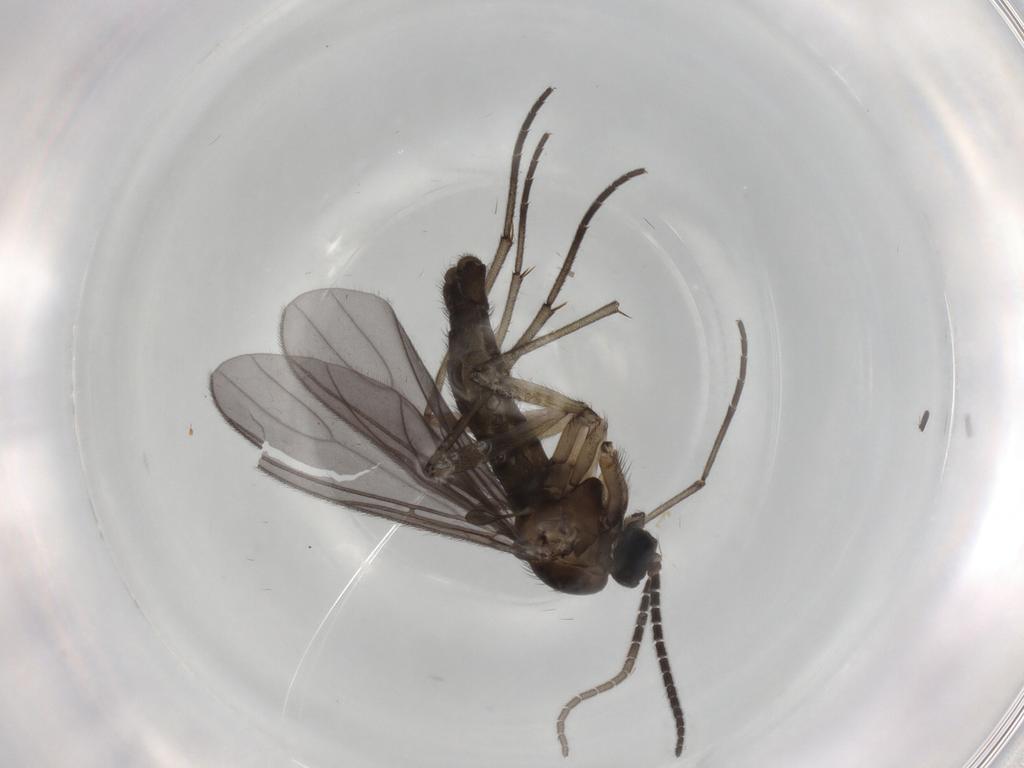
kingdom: Animalia
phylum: Arthropoda
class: Insecta
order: Diptera
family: Sciaridae
